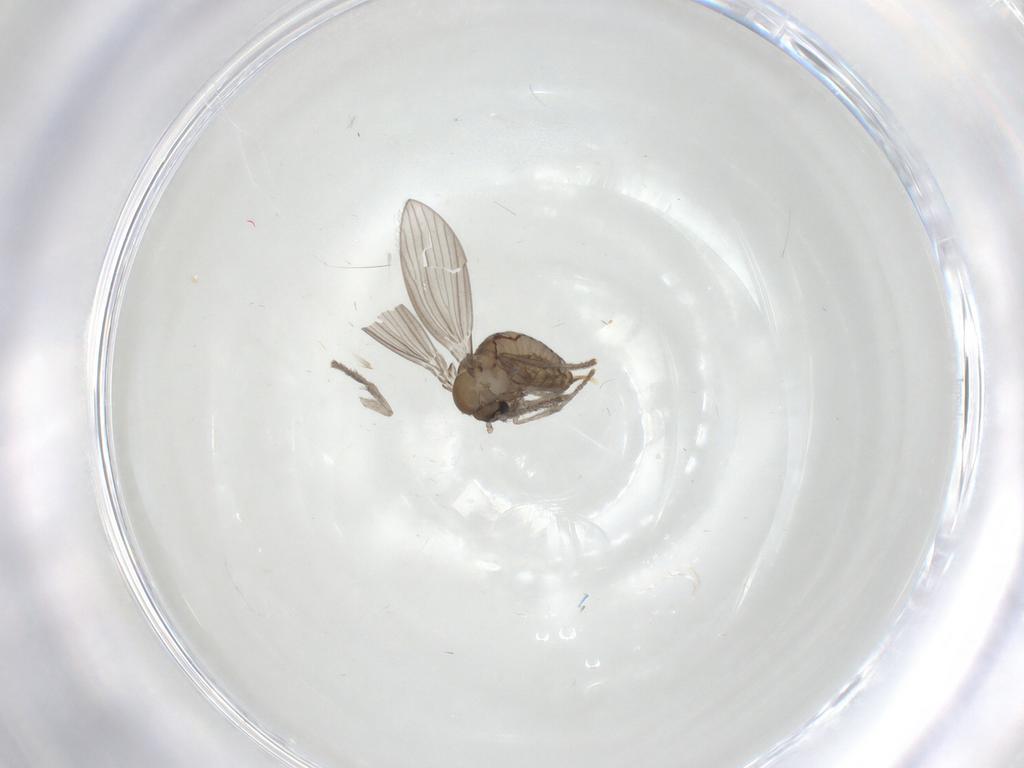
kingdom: Animalia
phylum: Arthropoda
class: Insecta
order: Diptera
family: Psychodidae
